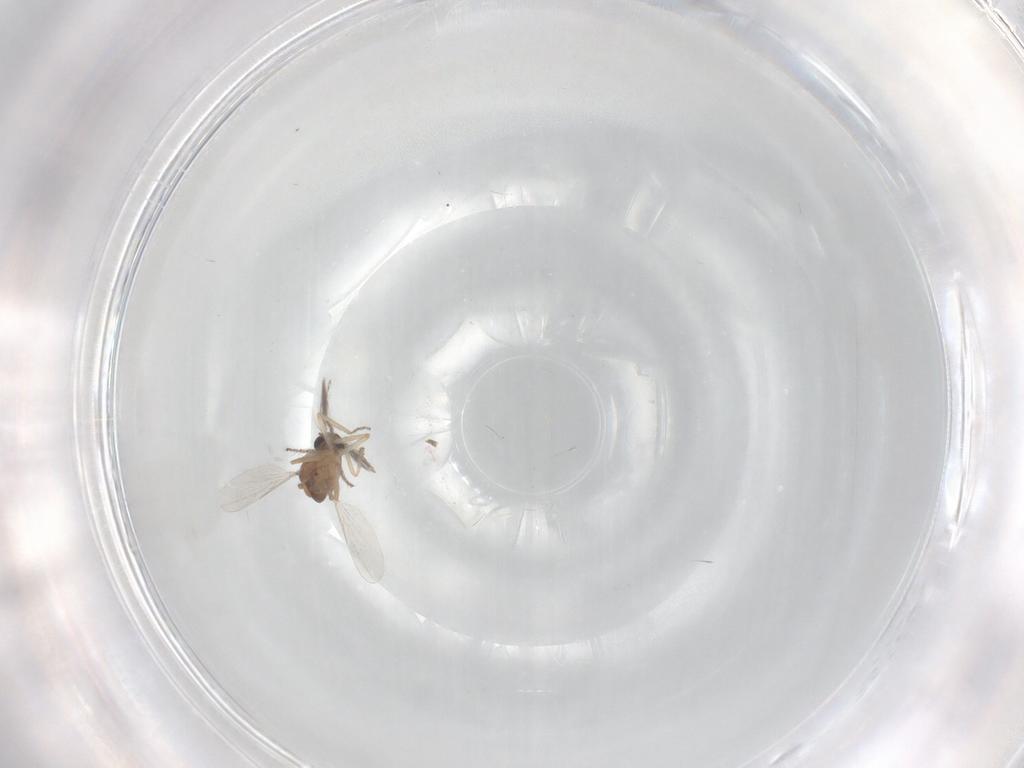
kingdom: Animalia
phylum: Arthropoda
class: Insecta
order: Diptera
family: Ceratopogonidae
